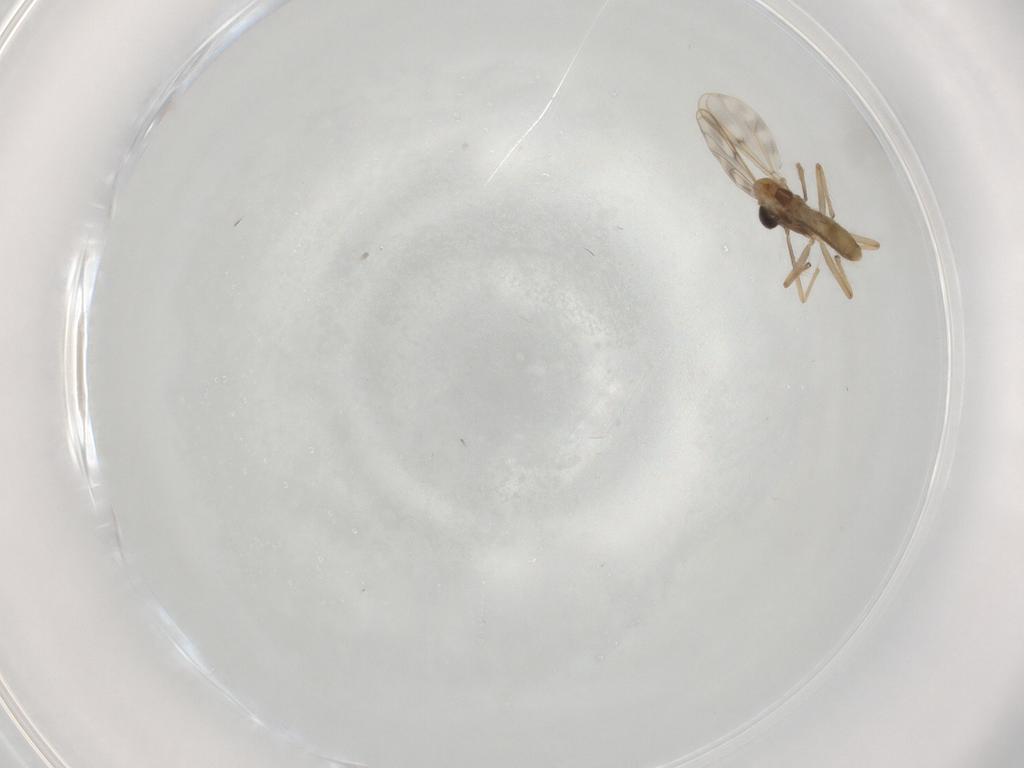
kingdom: Animalia
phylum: Arthropoda
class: Insecta
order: Diptera
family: Chironomidae
